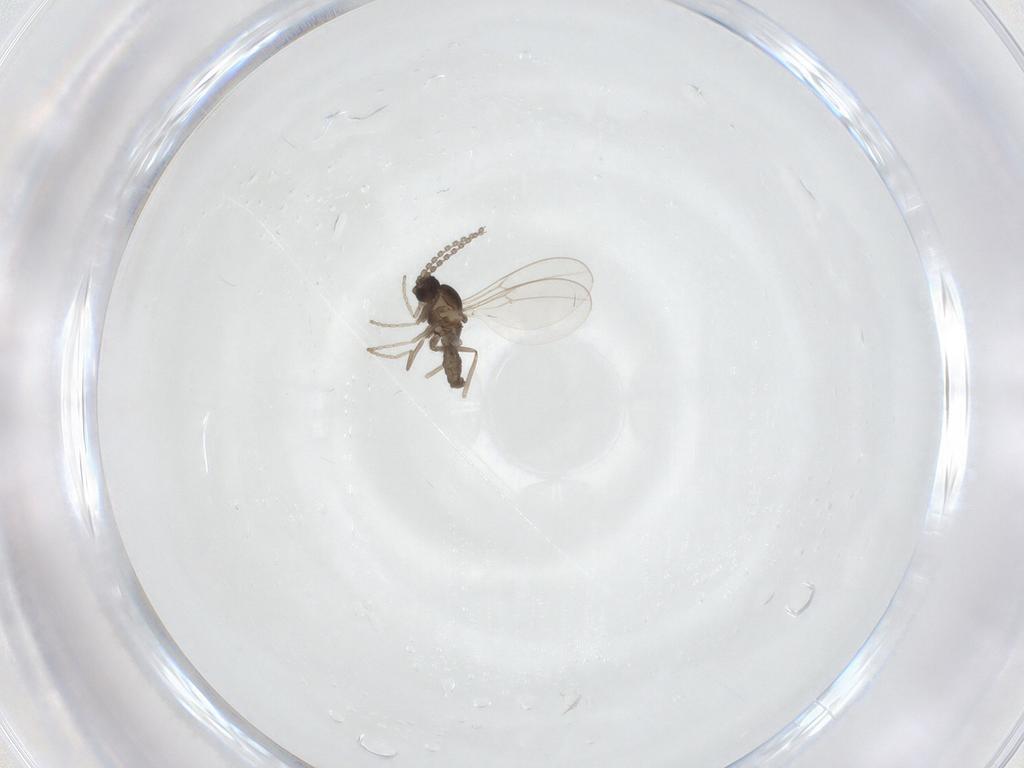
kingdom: Animalia
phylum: Arthropoda
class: Insecta
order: Diptera
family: Cecidomyiidae
